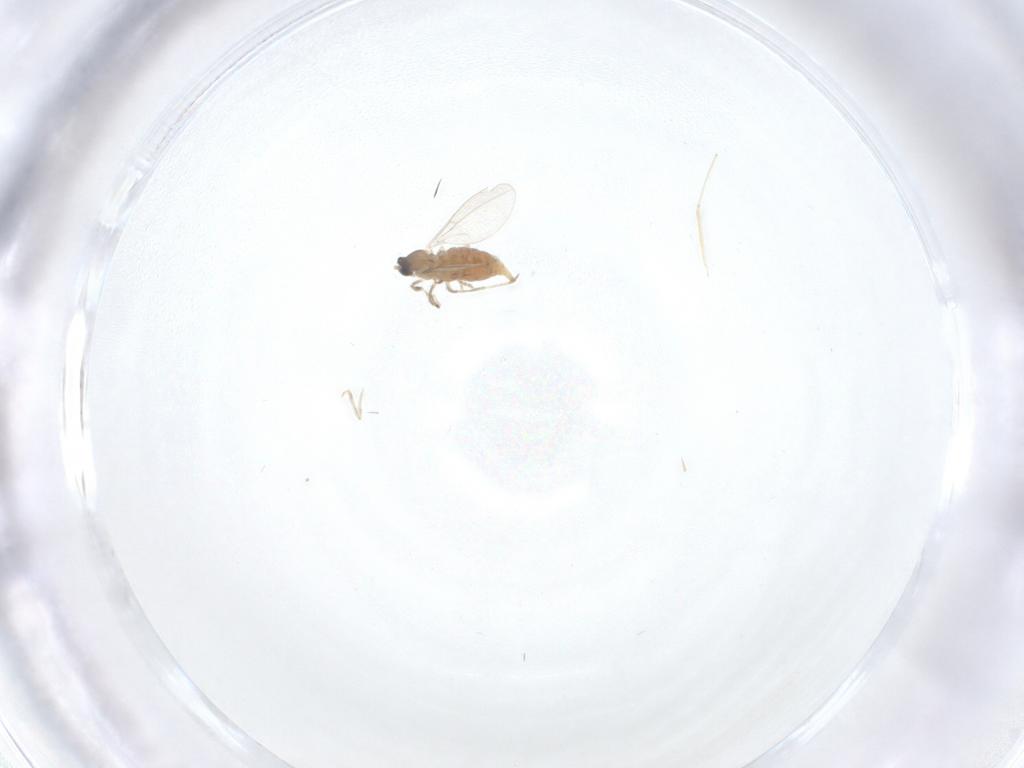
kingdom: Animalia
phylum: Arthropoda
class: Insecta
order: Diptera
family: Cecidomyiidae
